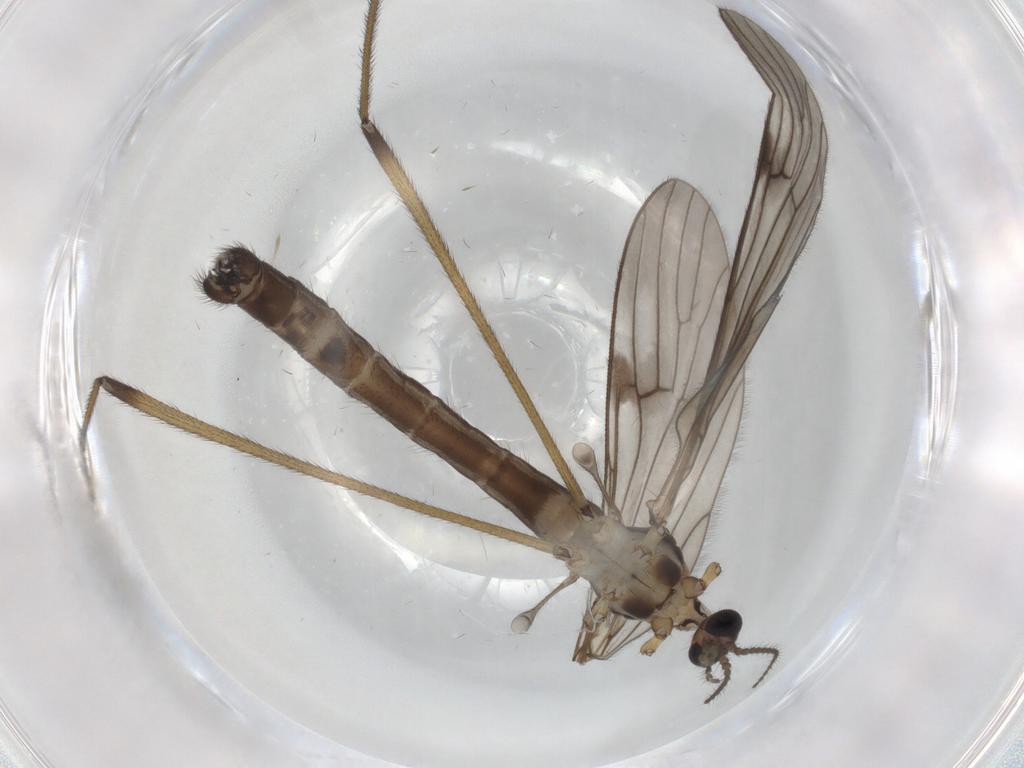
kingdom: Animalia
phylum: Arthropoda
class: Insecta
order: Diptera
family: Limoniidae
